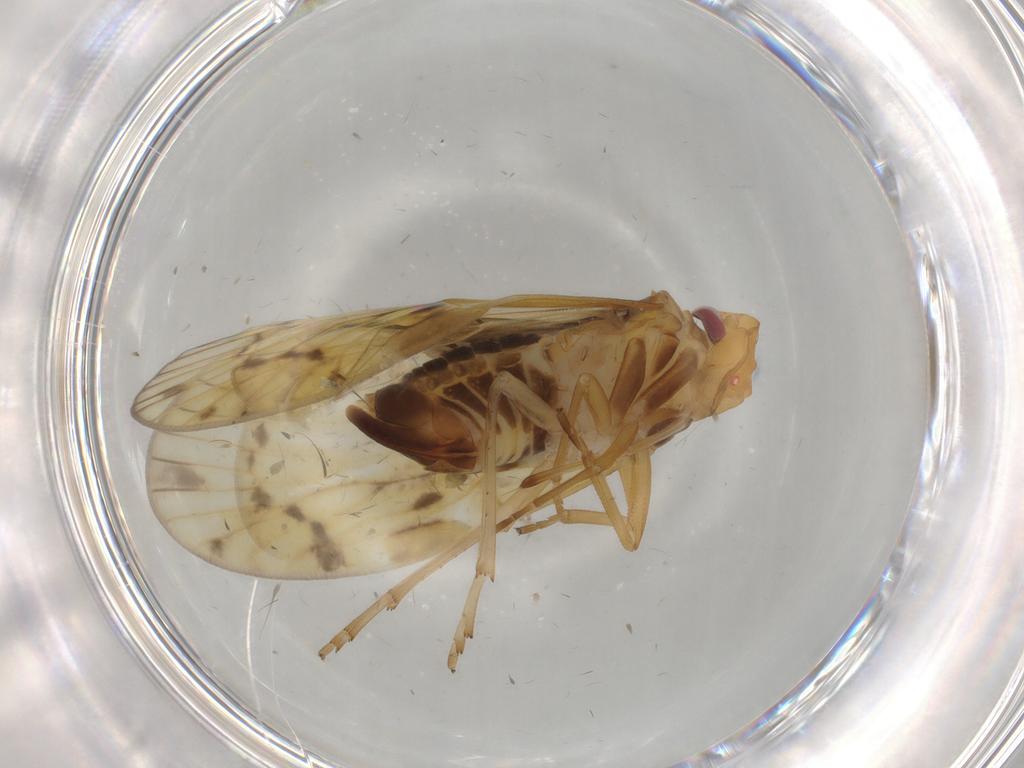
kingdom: Animalia
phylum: Arthropoda
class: Insecta
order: Hemiptera
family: Cixiidae
